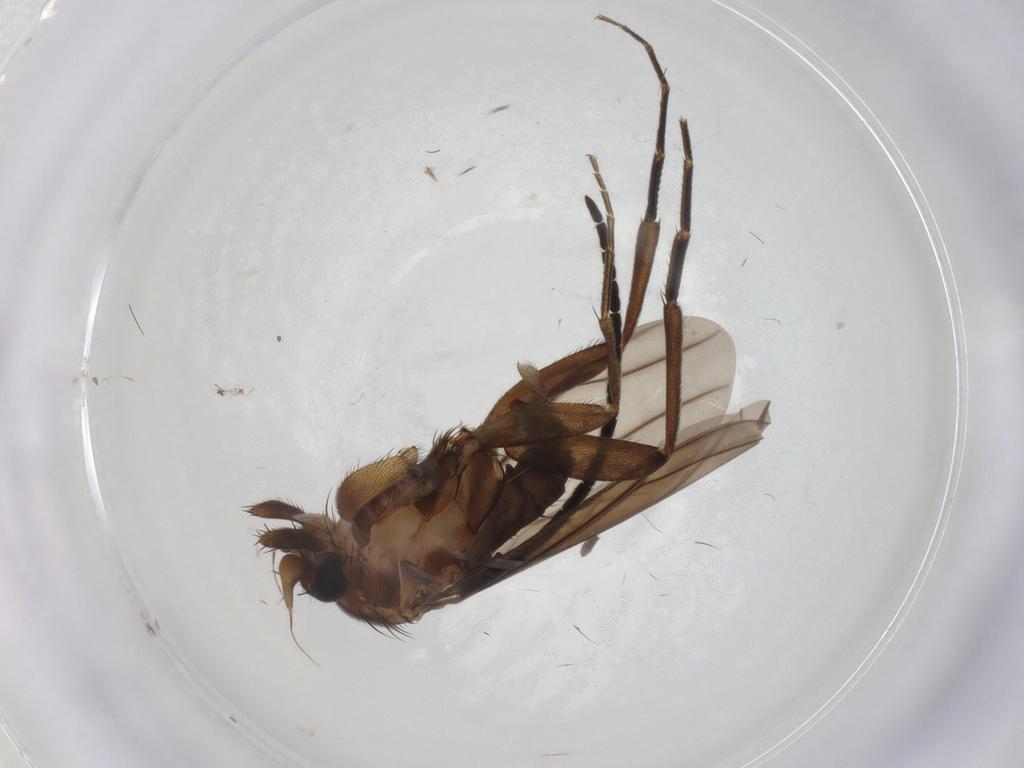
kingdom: Animalia
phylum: Arthropoda
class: Insecta
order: Diptera
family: Phoridae
